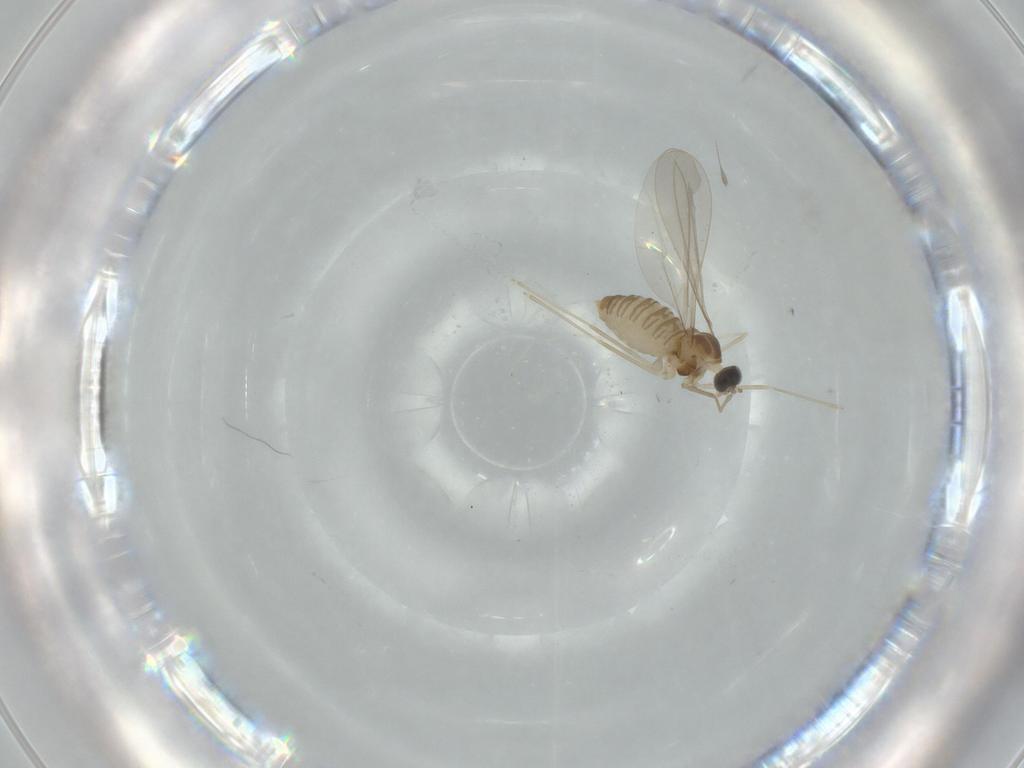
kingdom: Animalia
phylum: Arthropoda
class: Insecta
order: Diptera
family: Cecidomyiidae
